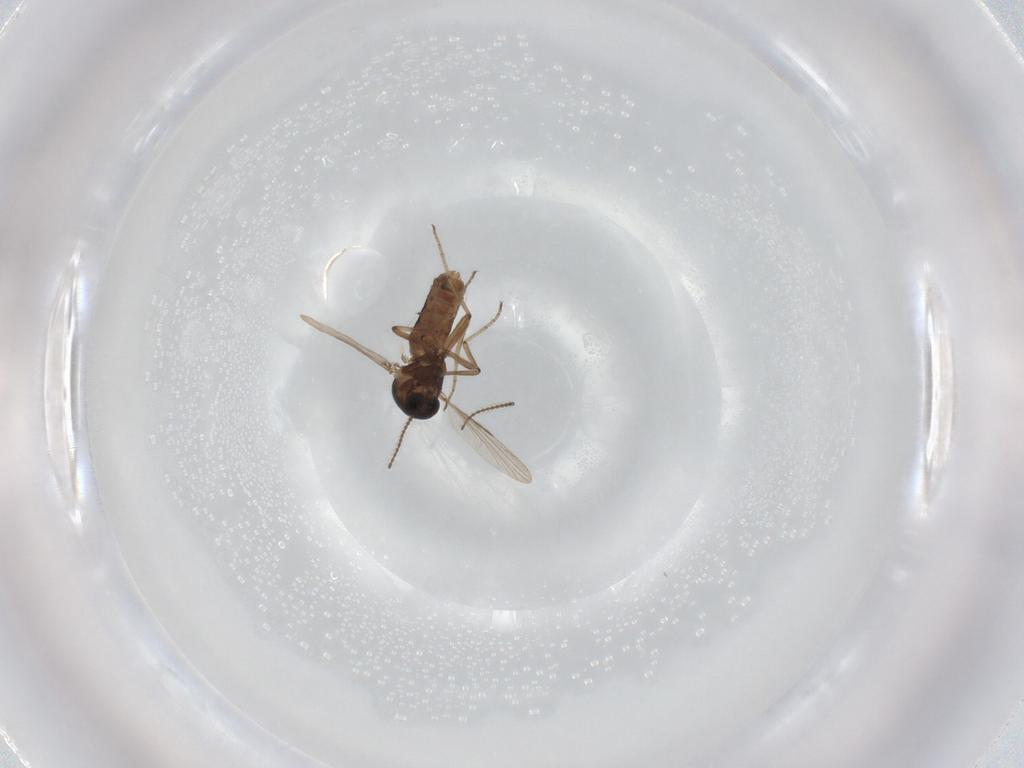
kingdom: Animalia
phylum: Arthropoda
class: Insecta
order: Diptera
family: Ceratopogonidae
